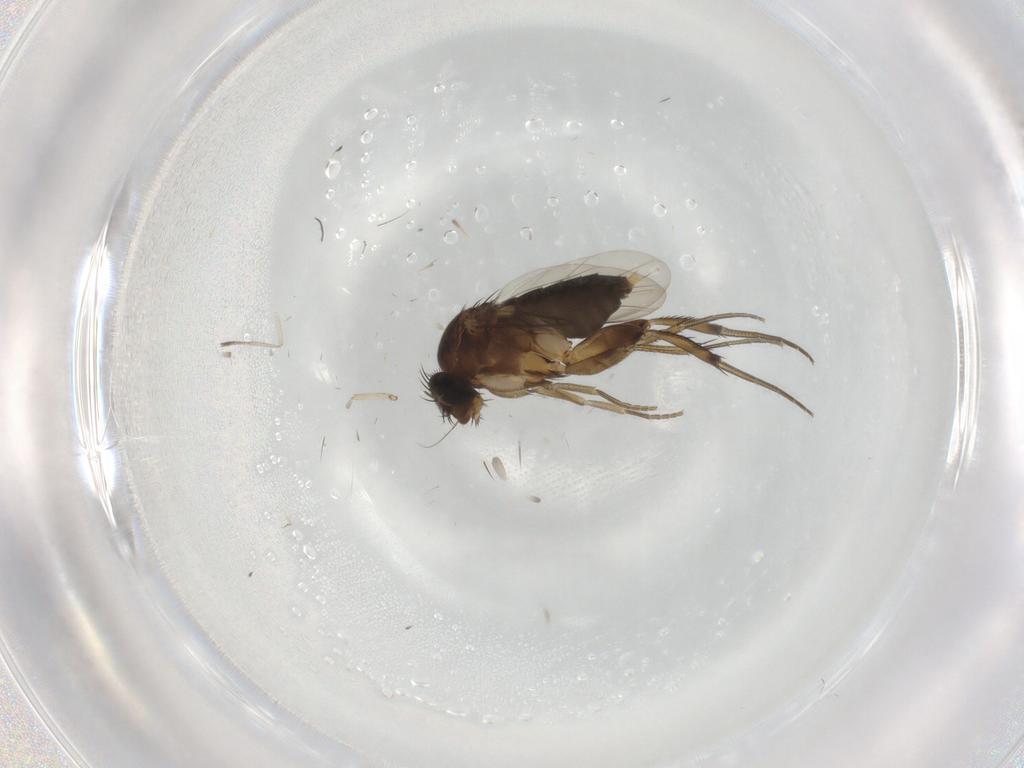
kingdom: Animalia
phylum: Arthropoda
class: Insecta
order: Diptera
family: Phoridae
